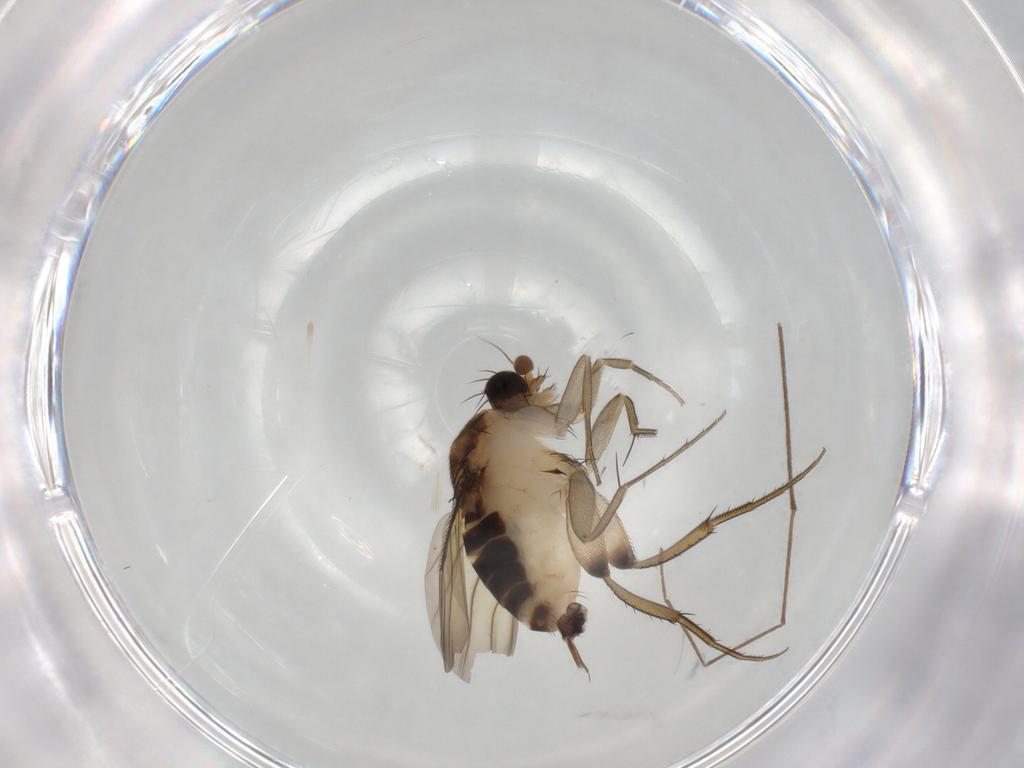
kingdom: Animalia
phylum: Arthropoda
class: Insecta
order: Diptera
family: Phoridae
